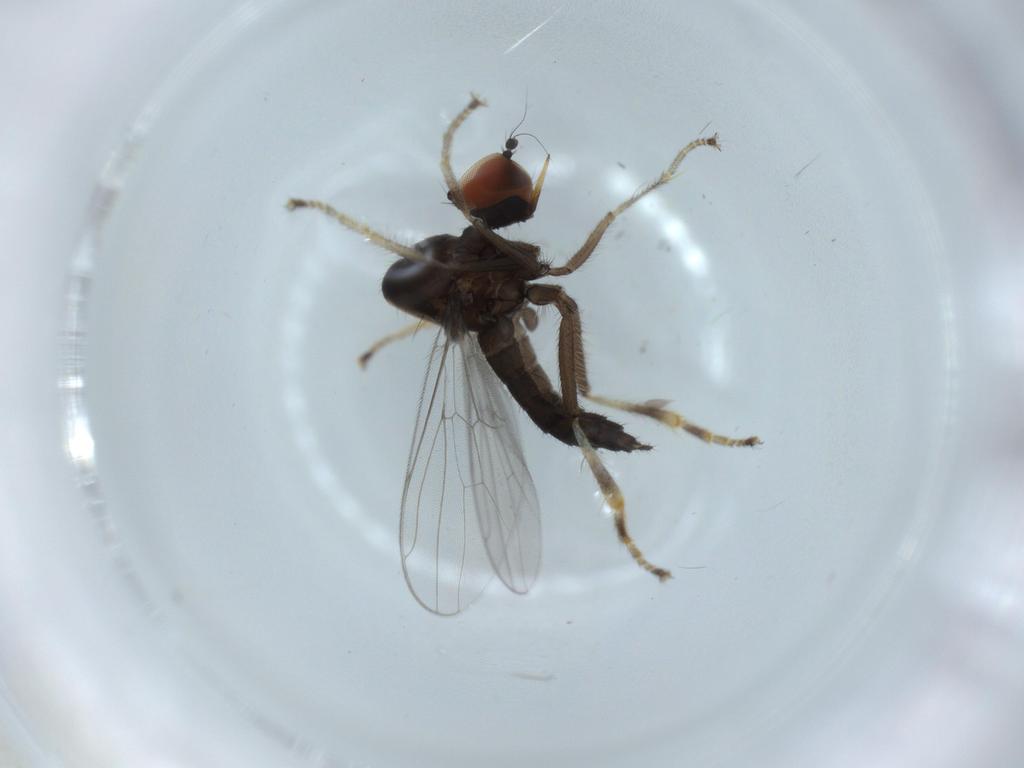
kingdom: Animalia
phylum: Arthropoda
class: Insecta
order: Diptera
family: Hybotidae
